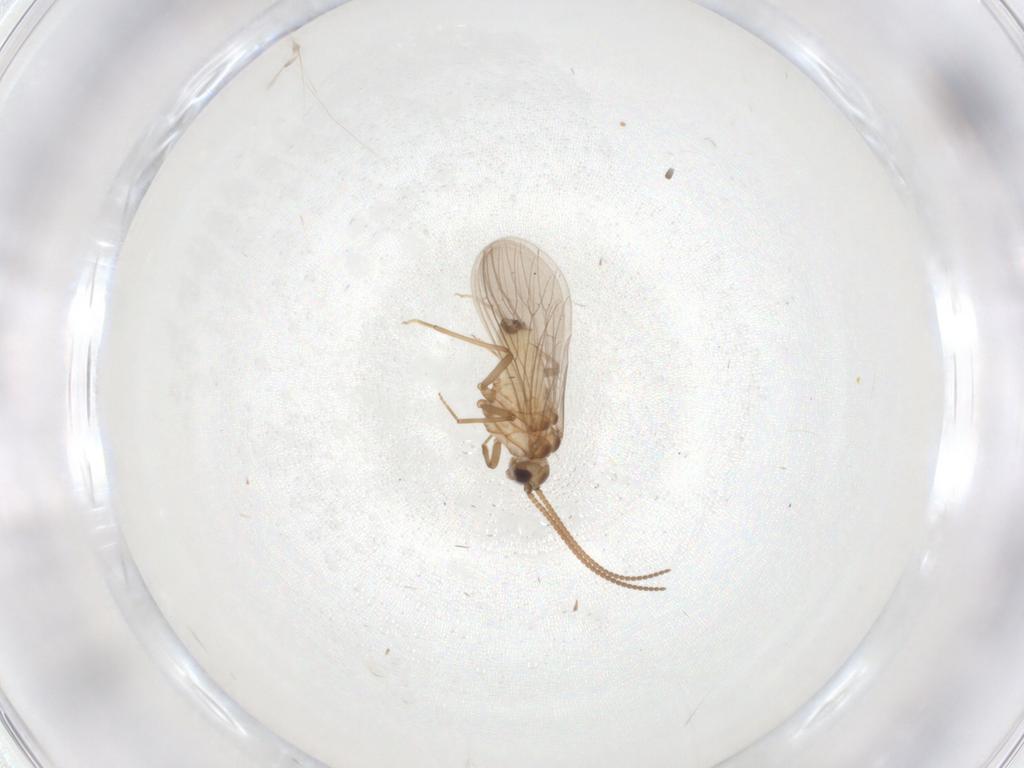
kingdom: Animalia
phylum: Arthropoda
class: Insecta
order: Neuroptera
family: Coniopterygidae
